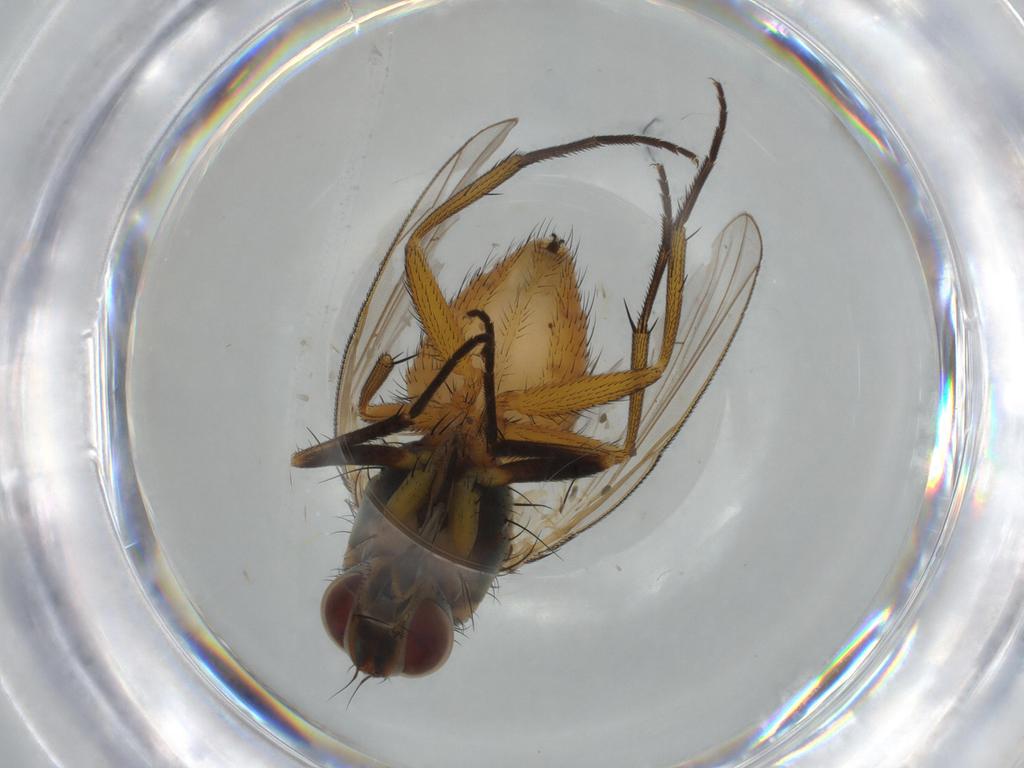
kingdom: Animalia
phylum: Arthropoda
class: Insecta
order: Diptera
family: Muscidae
